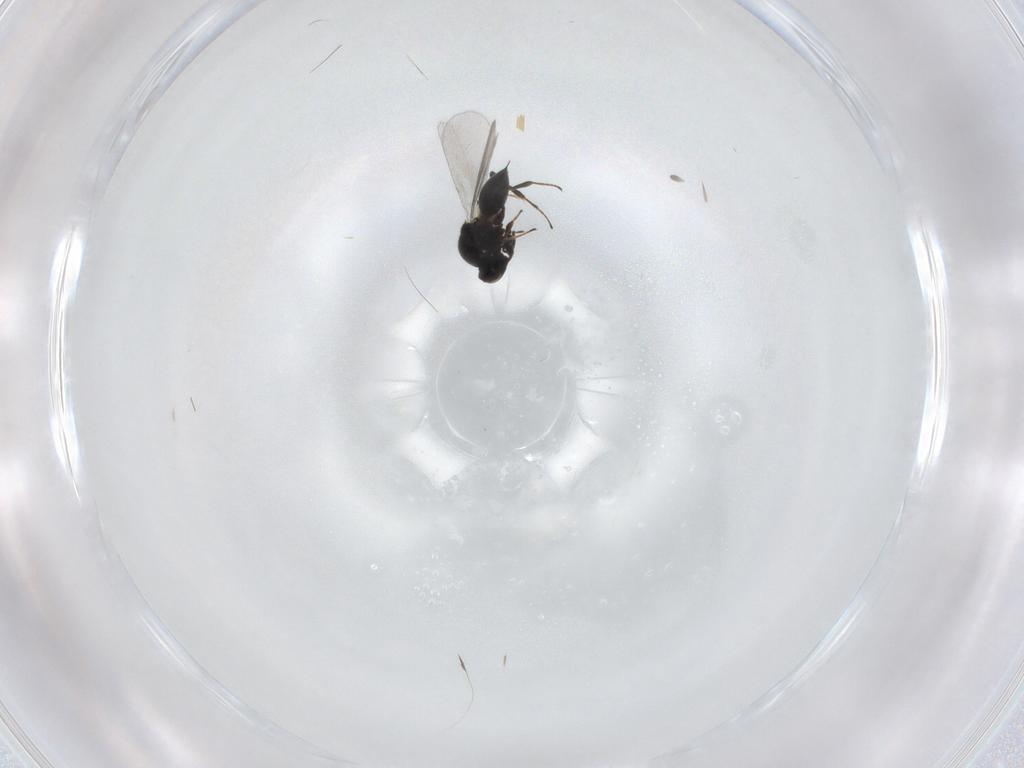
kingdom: Animalia
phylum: Arthropoda
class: Insecta
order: Hymenoptera
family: Platygastridae
